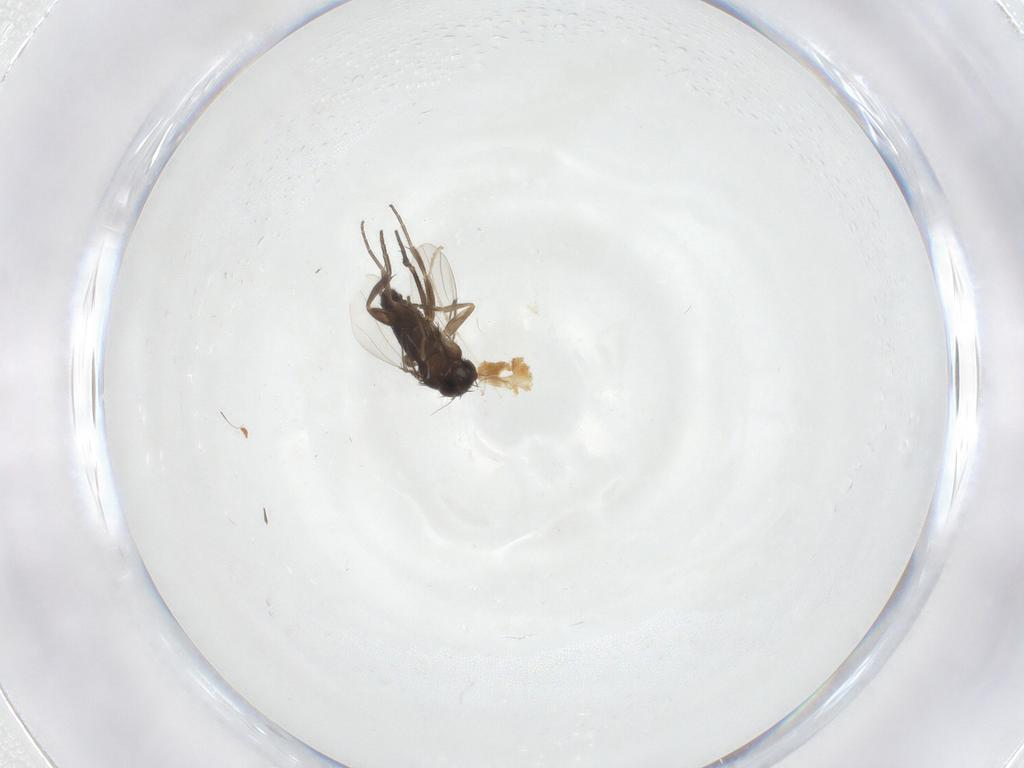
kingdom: Animalia
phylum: Arthropoda
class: Insecta
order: Diptera
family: Phoridae
